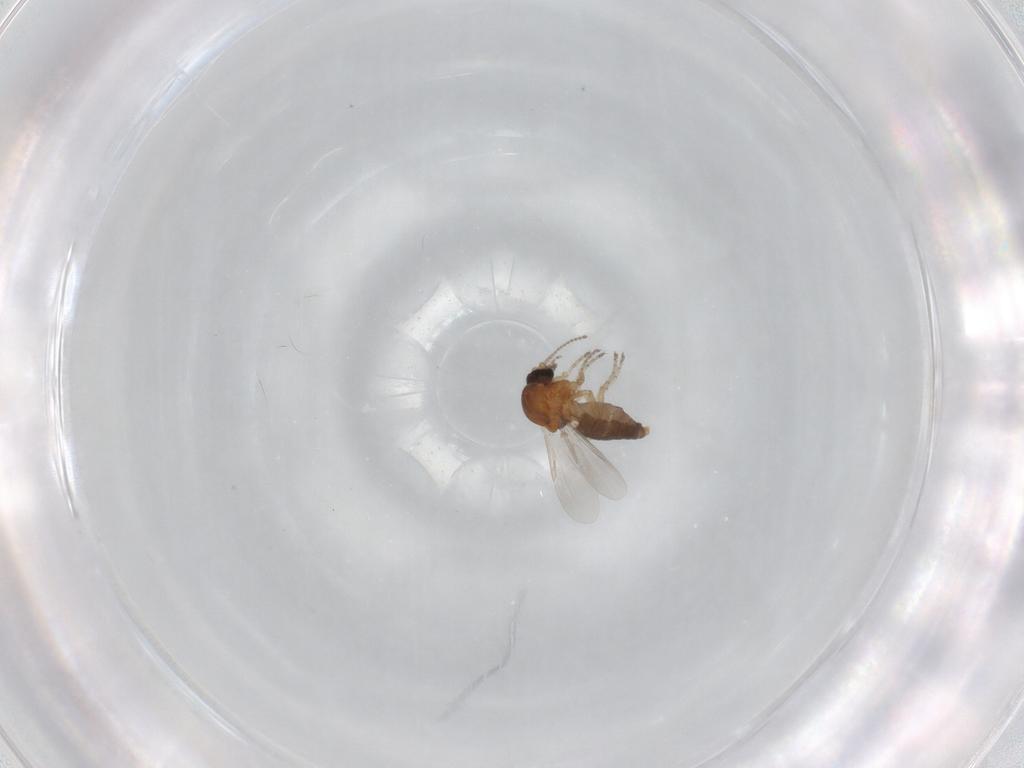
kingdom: Animalia
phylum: Arthropoda
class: Insecta
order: Diptera
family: Ceratopogonidae
